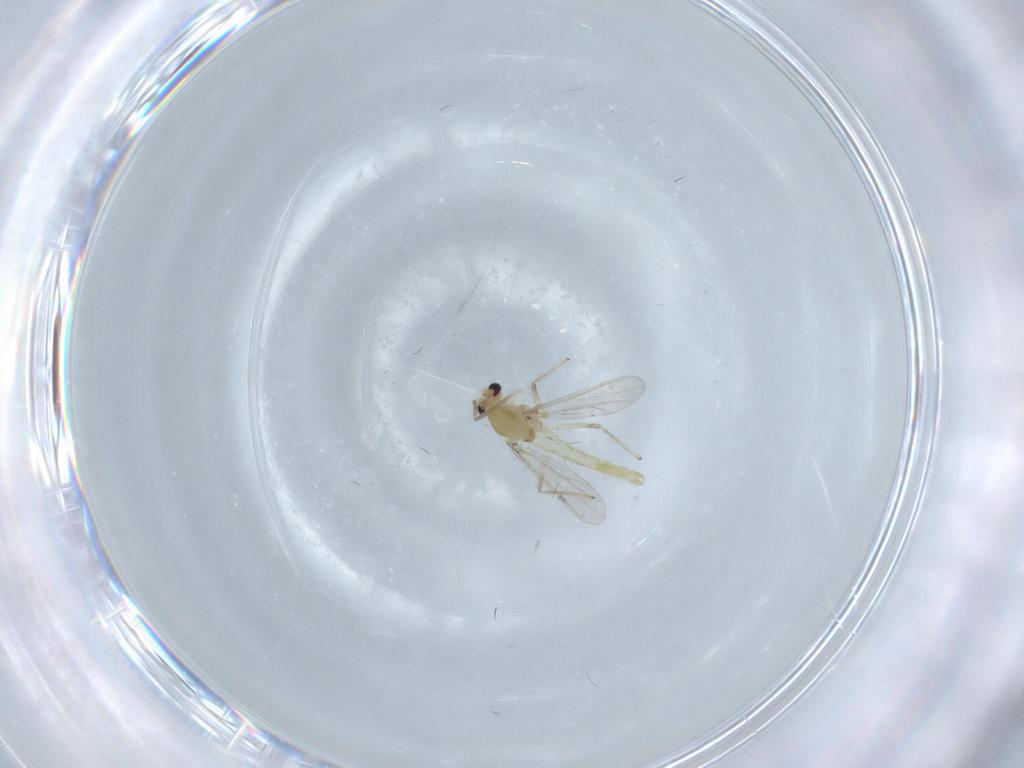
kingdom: Animalia
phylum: Arthropoda
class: Insecta
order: Diptera
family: Chironomidae
